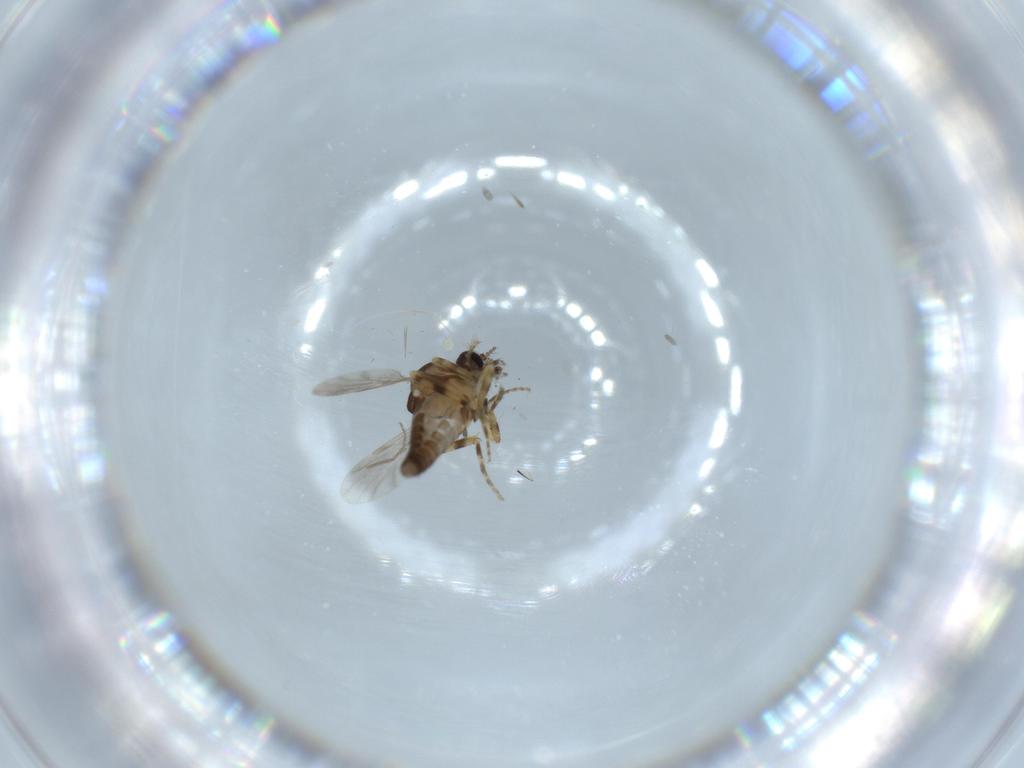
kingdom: Animalia
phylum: Arthropoda
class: Insecta
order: Diptera
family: Sciaridae
